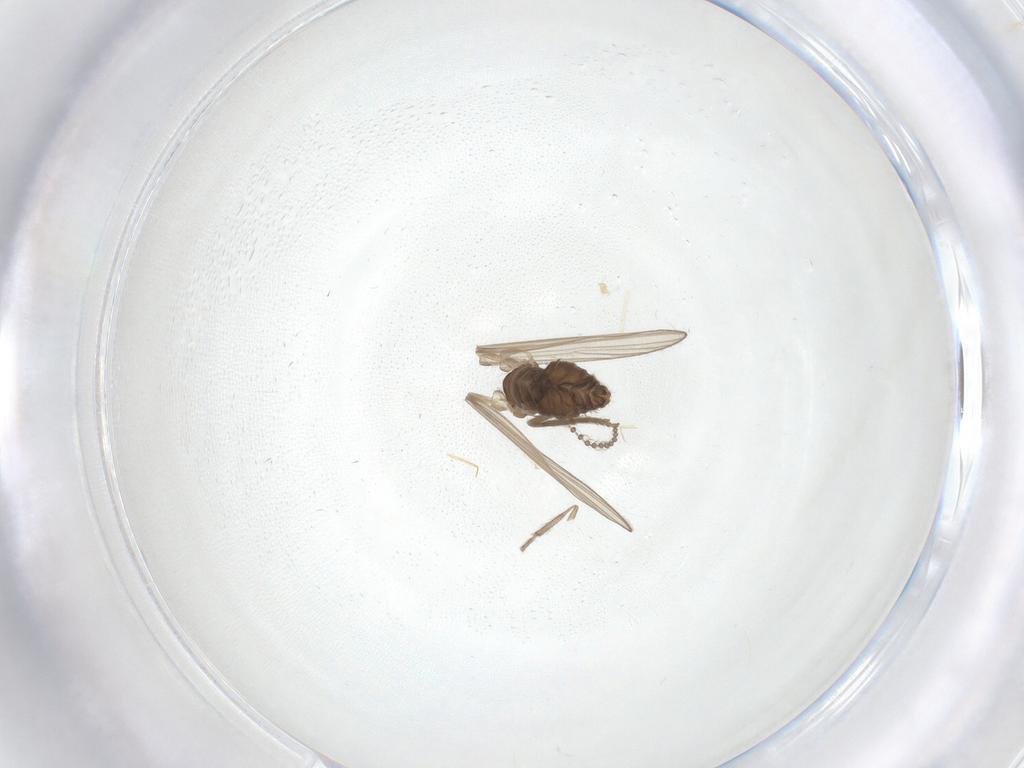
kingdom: Animalia
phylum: Arthropoda
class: Insecta
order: Diptera
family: Psychodidae
